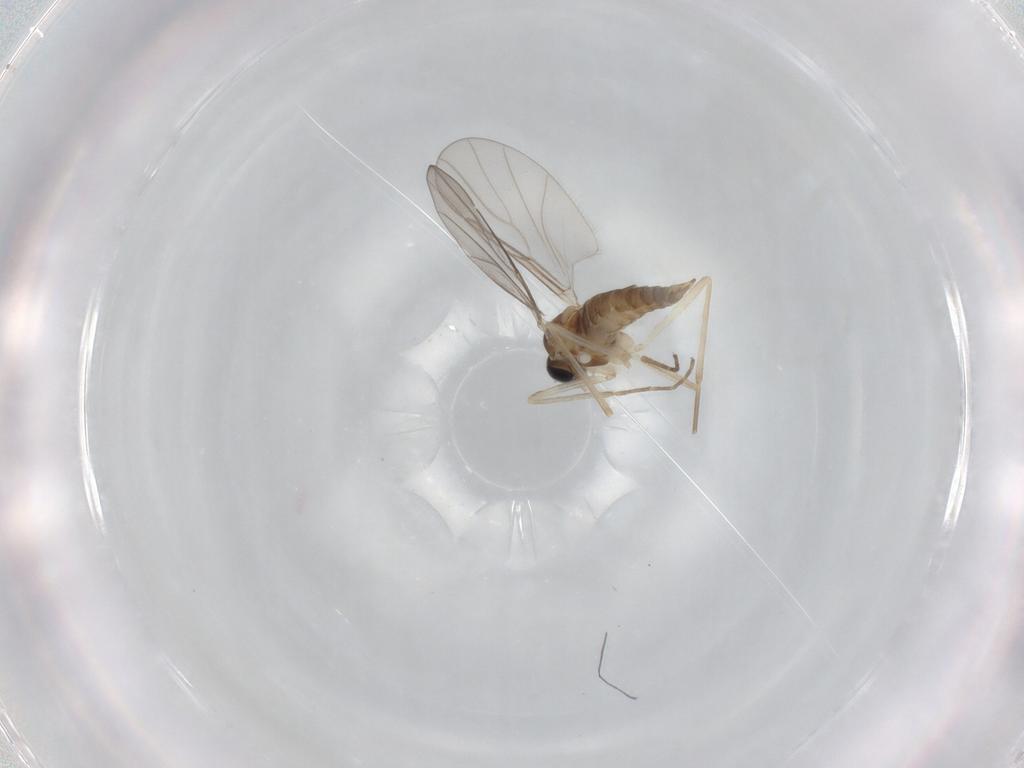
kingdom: Animalia
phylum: Arthropoda
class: Insecta
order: Diptera
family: Cecidomyiidae
